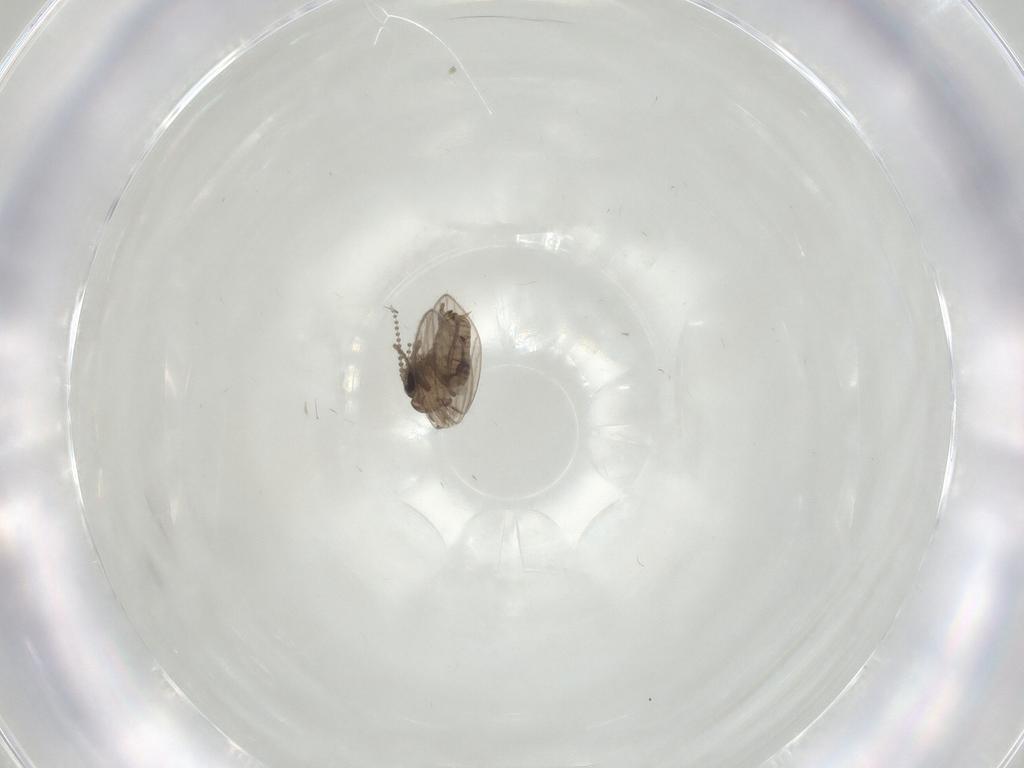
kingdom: Animalia
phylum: Arthropoda
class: Insecta
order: Diptera
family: Psychodidae
